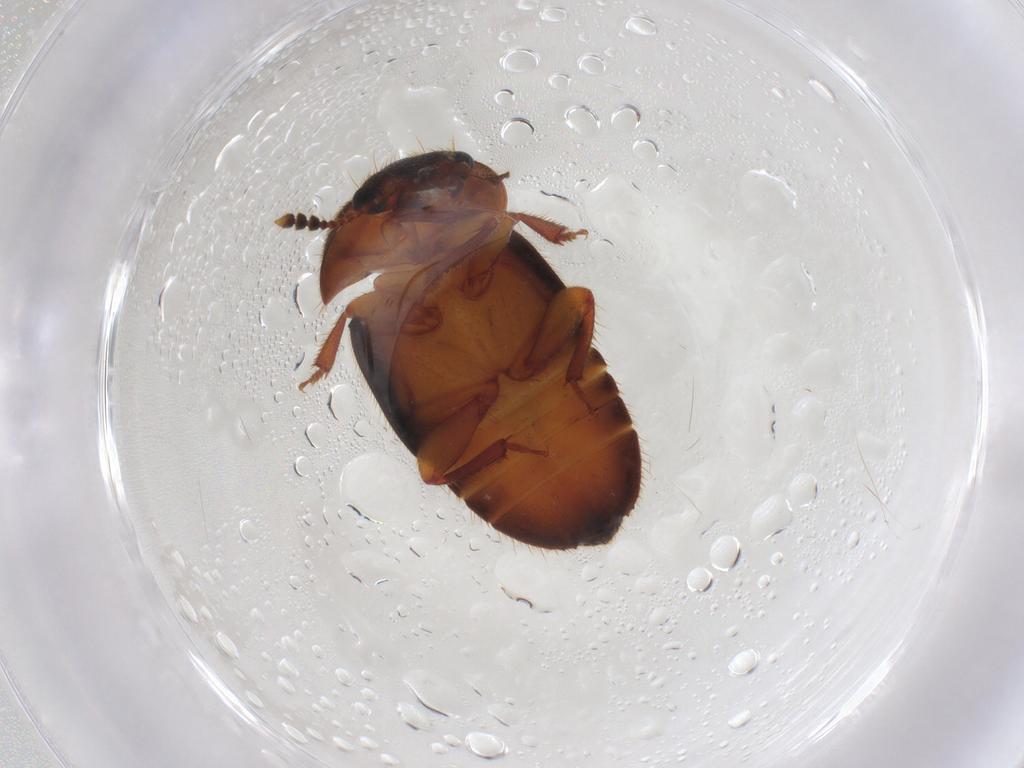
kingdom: Animalia
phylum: Arthropoda
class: Insecta
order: Coleoptera
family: Nitidulidae
